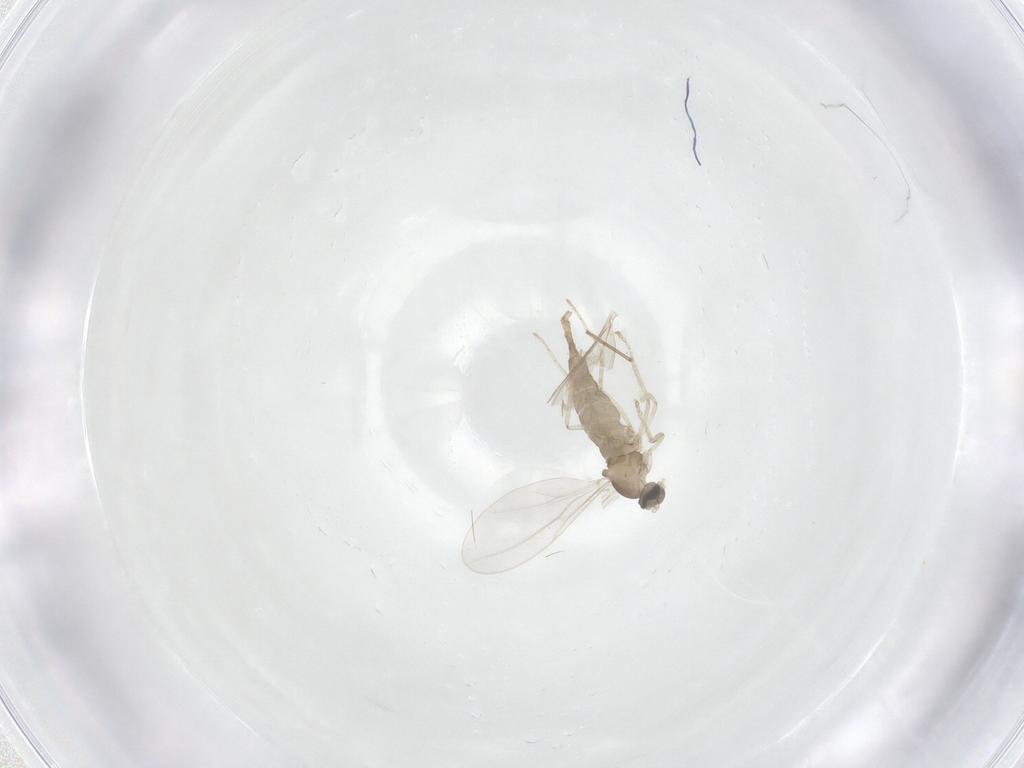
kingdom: Animalia
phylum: Arthropoda
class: Insecta
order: Diptera
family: Cecidomyiidae
